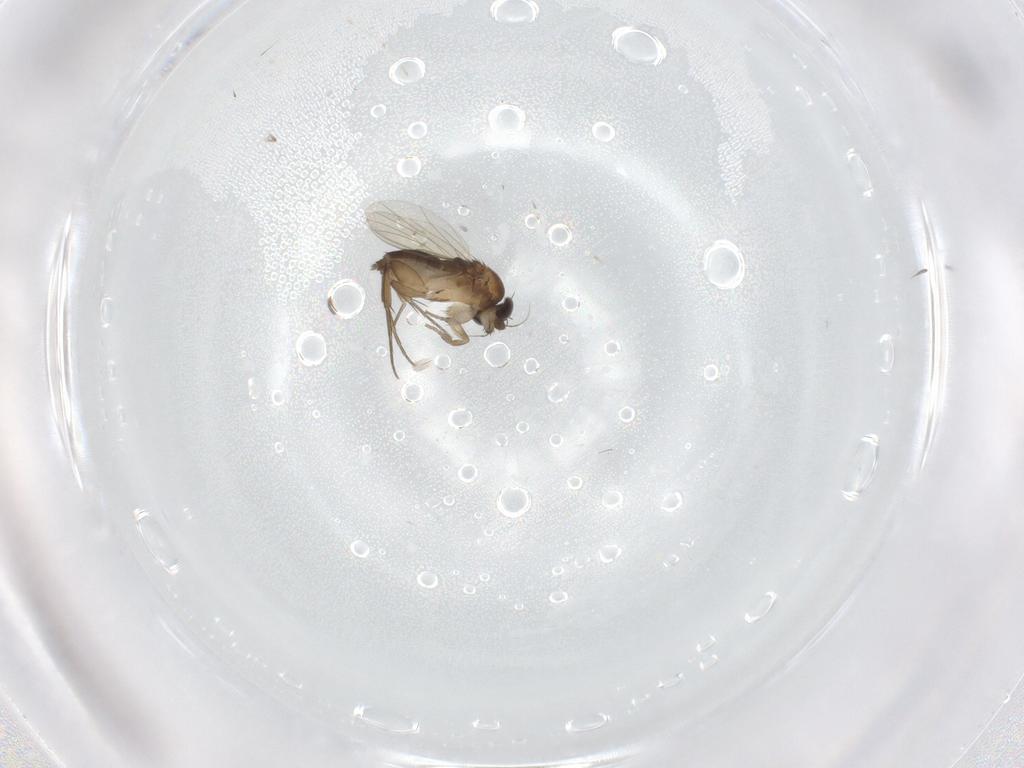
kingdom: Animalia
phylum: Arthropoda
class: Insecta
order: Diptera
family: Phoridae
